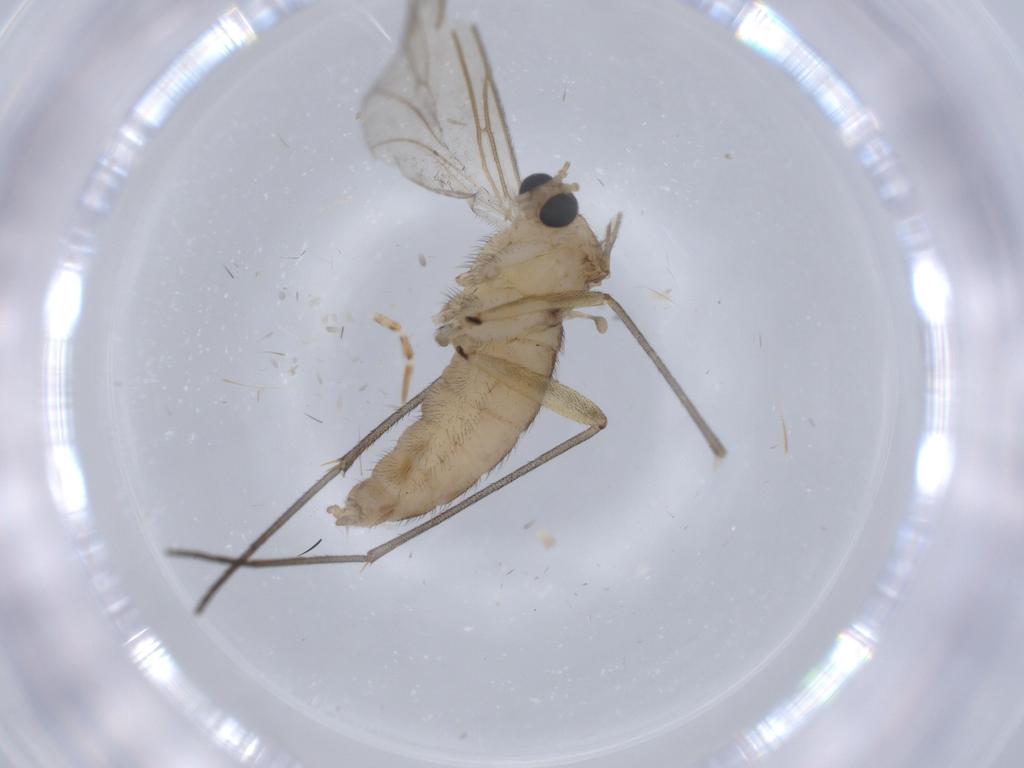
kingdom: Animalia
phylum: Arthropoda
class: Insecta
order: Diptera
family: Sciaridae
